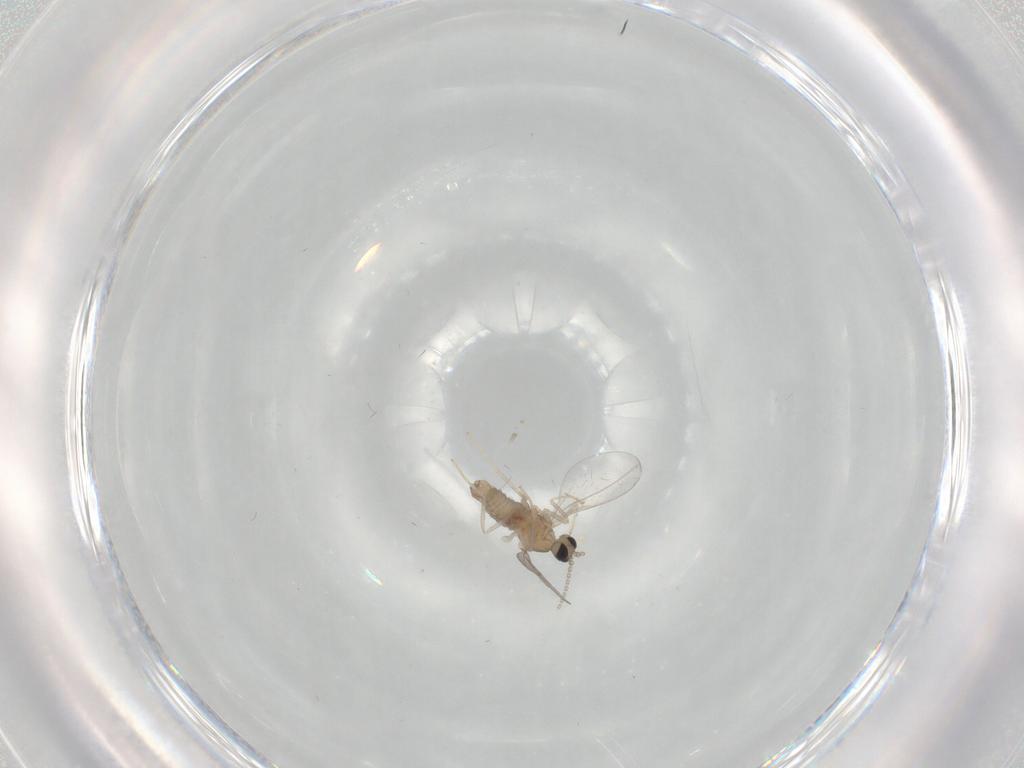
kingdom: Animalia
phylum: Arthropoda
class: Insecta
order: Diptera
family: Cecidomyiidae
